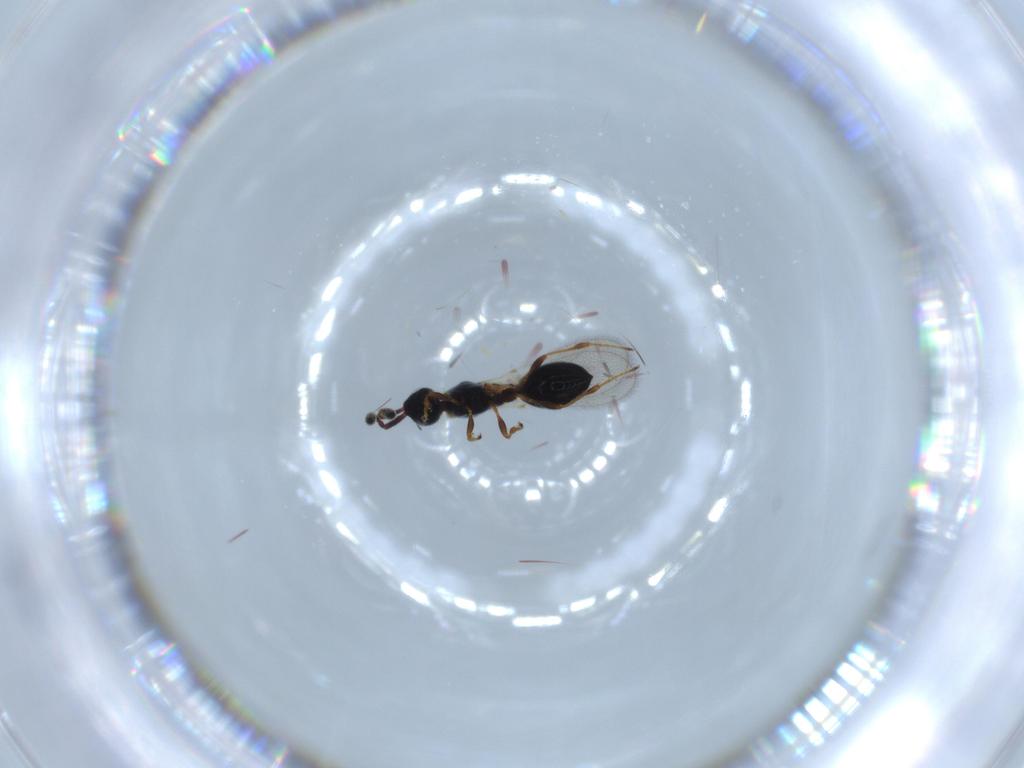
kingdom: Animalia
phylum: Arthropoda
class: Insecta
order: Hymenoptera
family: Diapriidae
